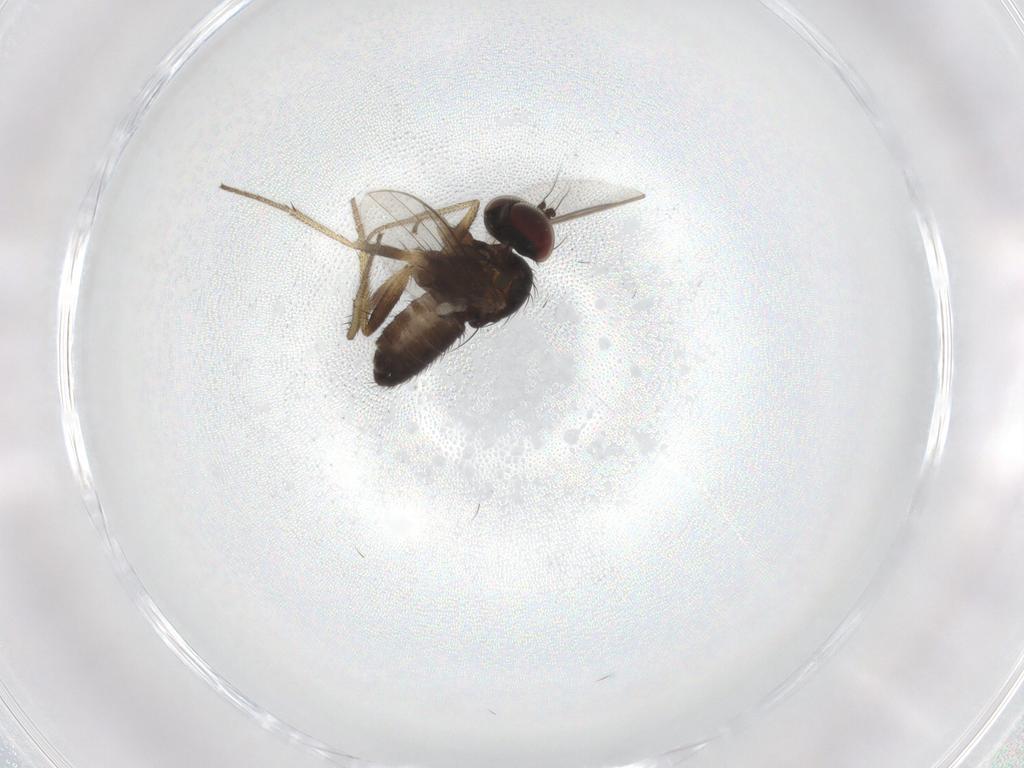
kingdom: Animalia
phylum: Arthropoda
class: Insecta
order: Diptera
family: Dolichopodidae
